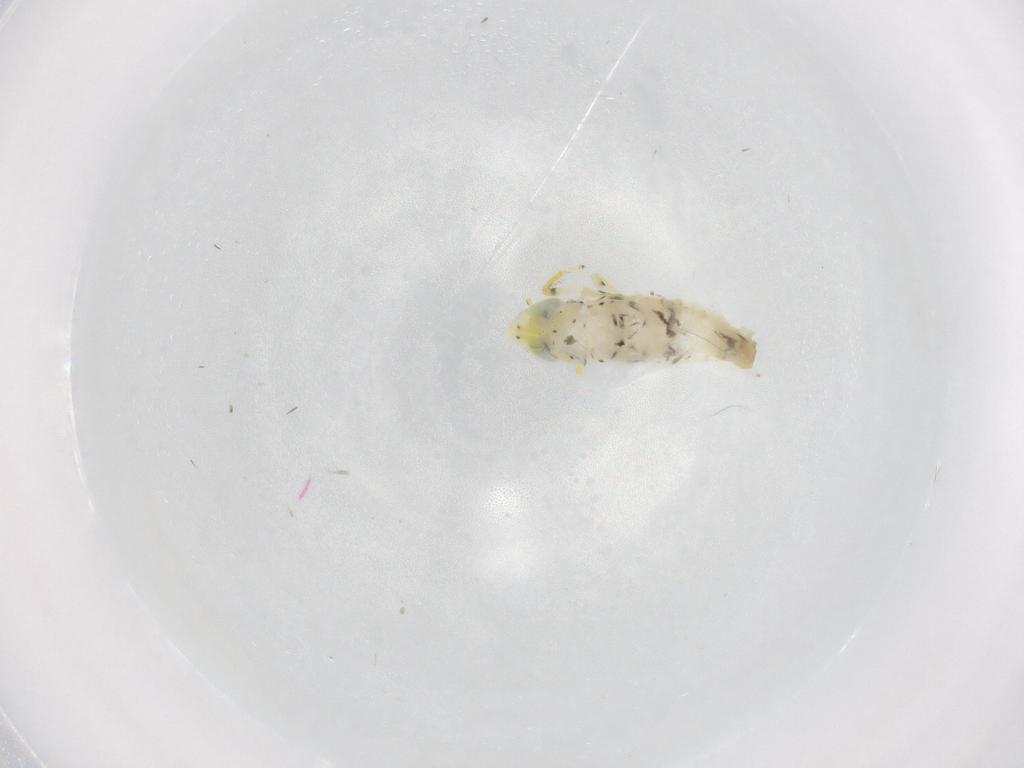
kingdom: Animalia
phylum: Arthropoda
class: Insecta
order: Hemiptera
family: Cicadellidae
